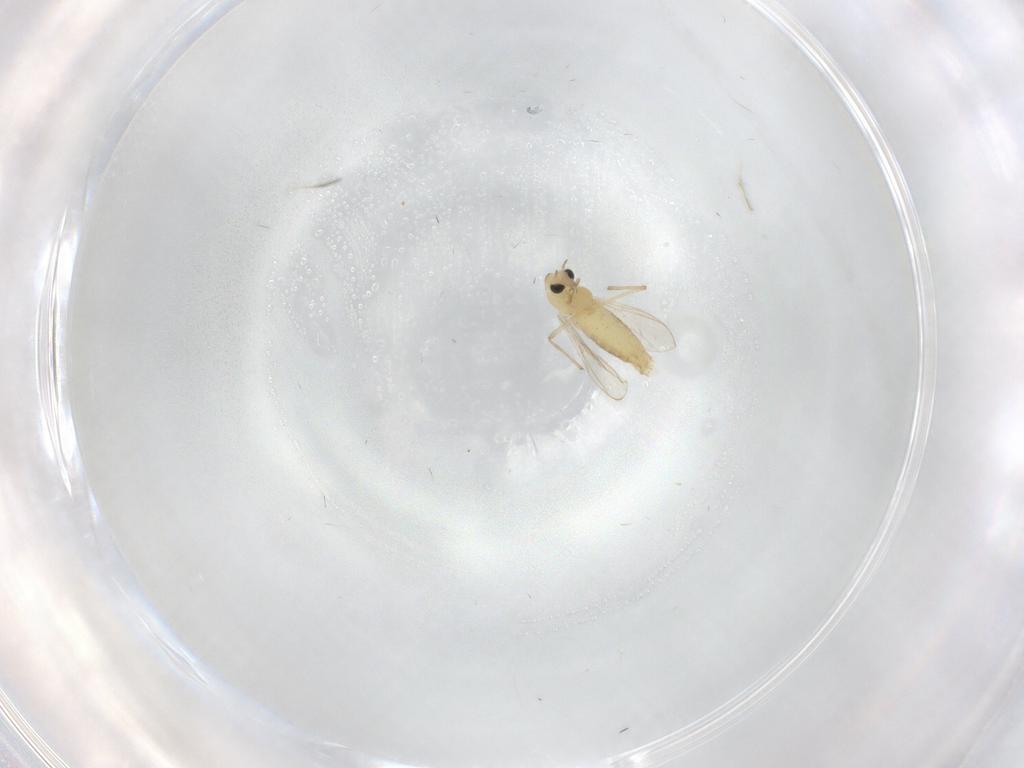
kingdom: Animalia
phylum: Arthropoda
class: Insecta
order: Diptera
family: Chironomidae
